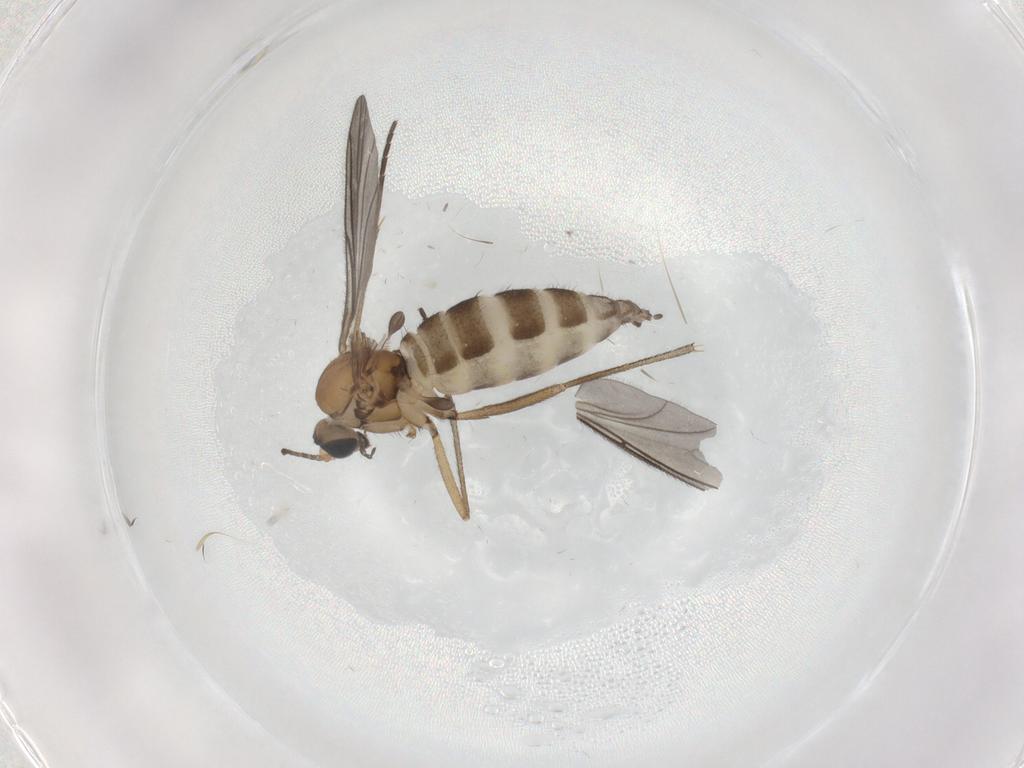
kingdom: Animalia
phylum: Arthropoda
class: Insecta
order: Diptera
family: Sciaridae
